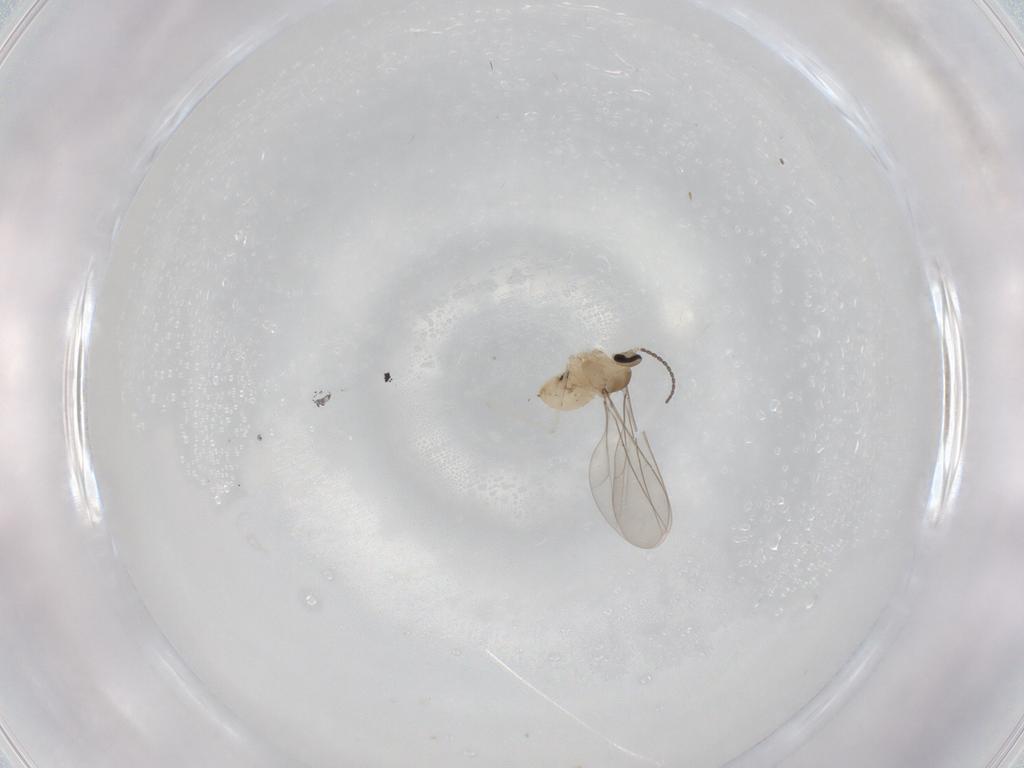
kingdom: Animalia
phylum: Arthropoda
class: Insecta
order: Diptera
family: Cecidomyiidae
